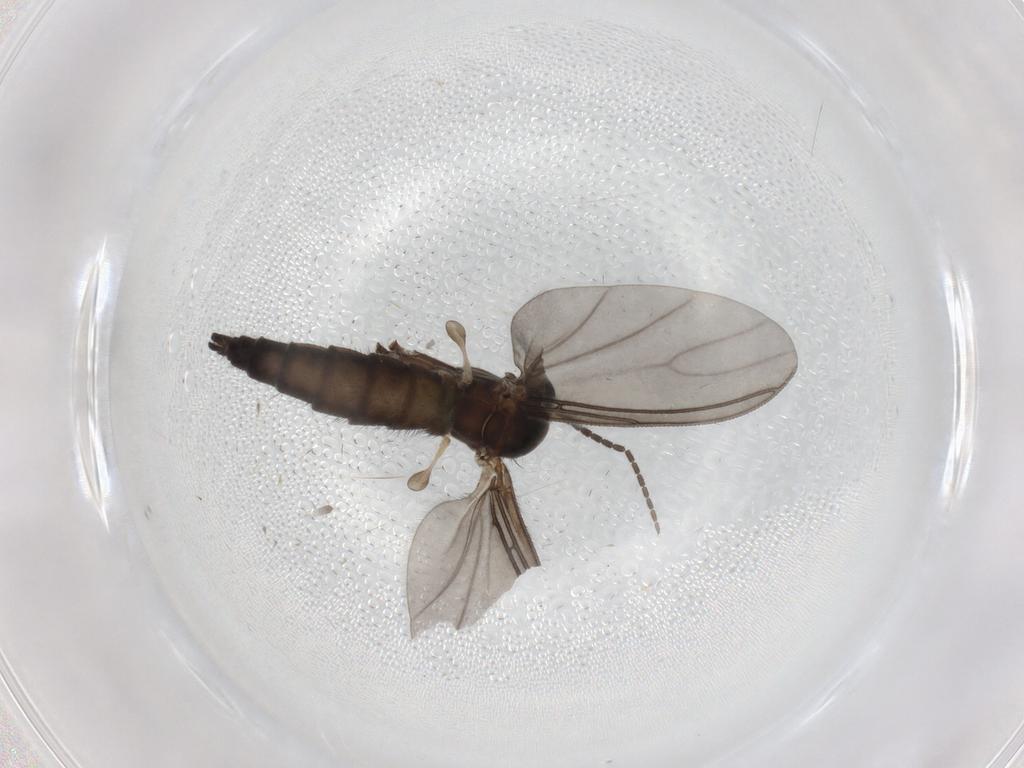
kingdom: Animalia
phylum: Arthropoda
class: Insecta
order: Diptera
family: Sciaridae
